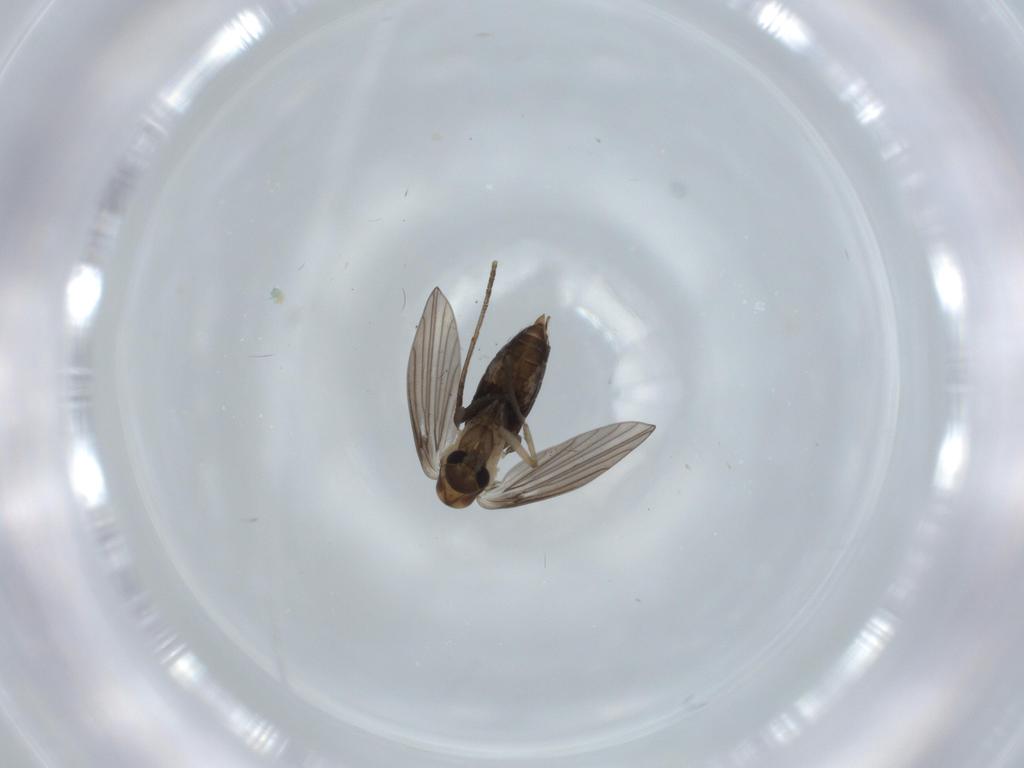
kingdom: Animalia
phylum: Arthropoda
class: Insecta
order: Diptera
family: Psychodidae
